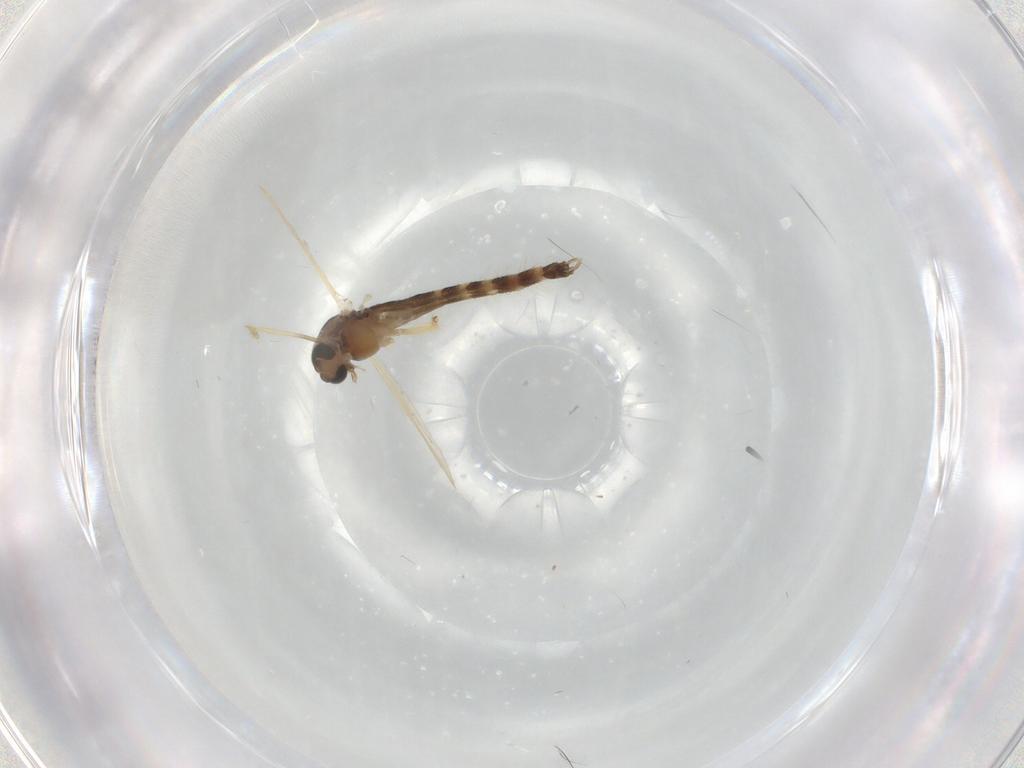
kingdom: Animalia
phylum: Arthropoda
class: Insecta
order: Diptera
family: Chironomidae
